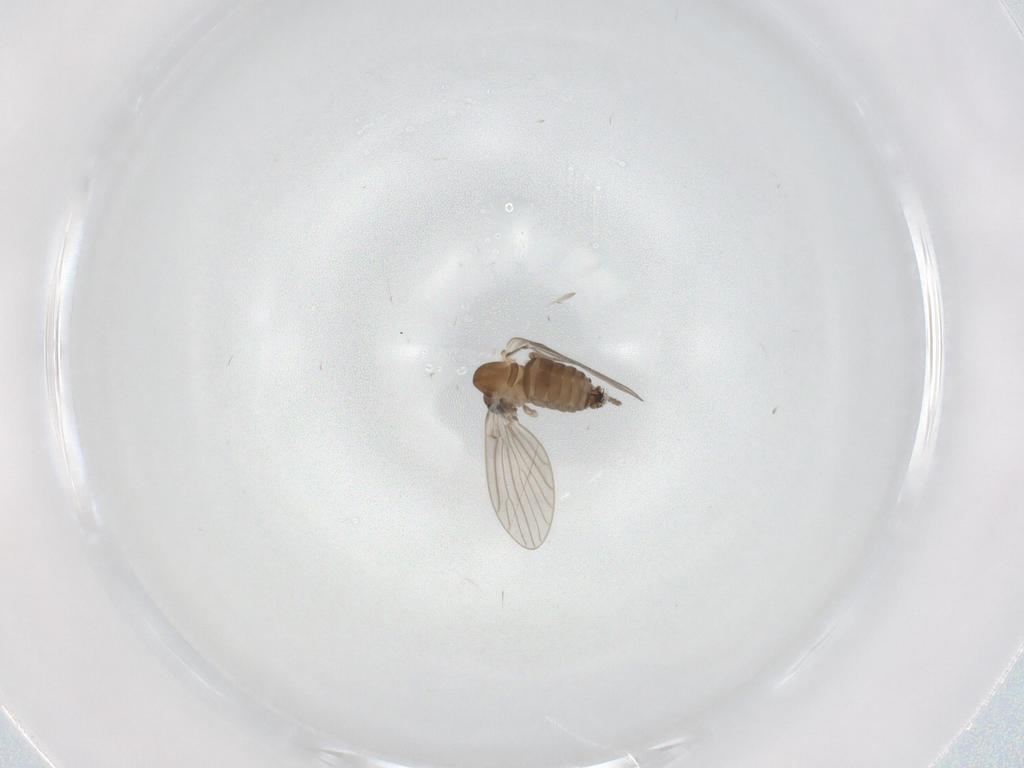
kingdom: Animalia
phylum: Arthropoda
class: Insecta
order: Diptera
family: Psychodidae
